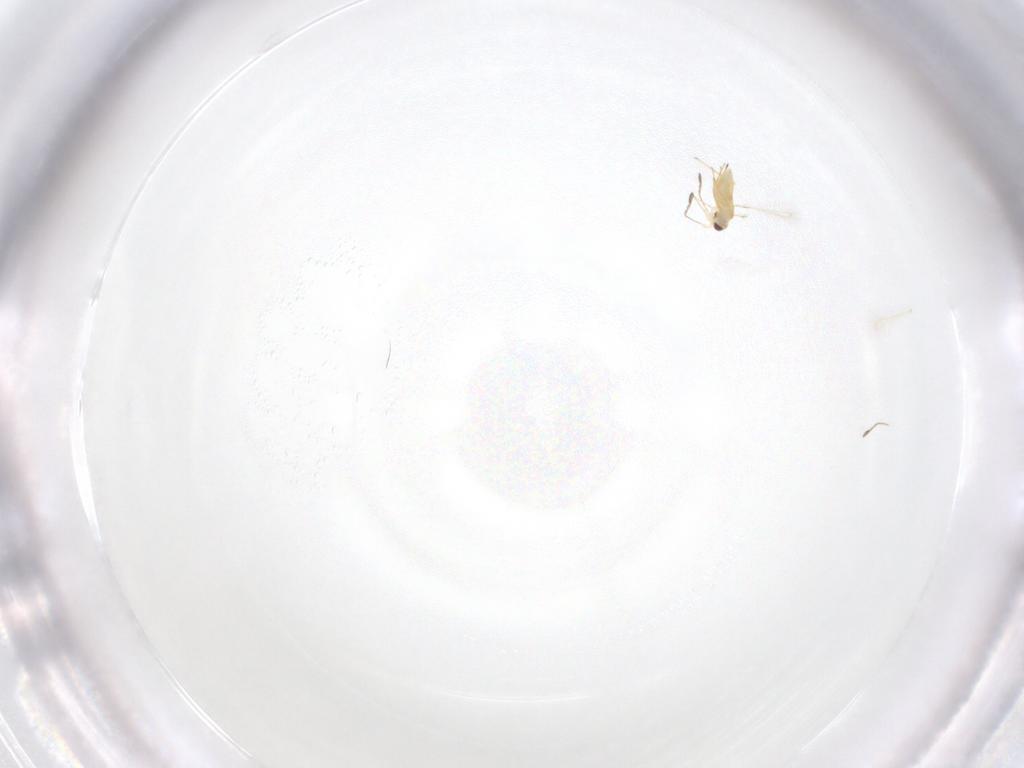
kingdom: Animalia
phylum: Arthropoda
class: Insecta
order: Hymenoptera
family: Mymaridae
